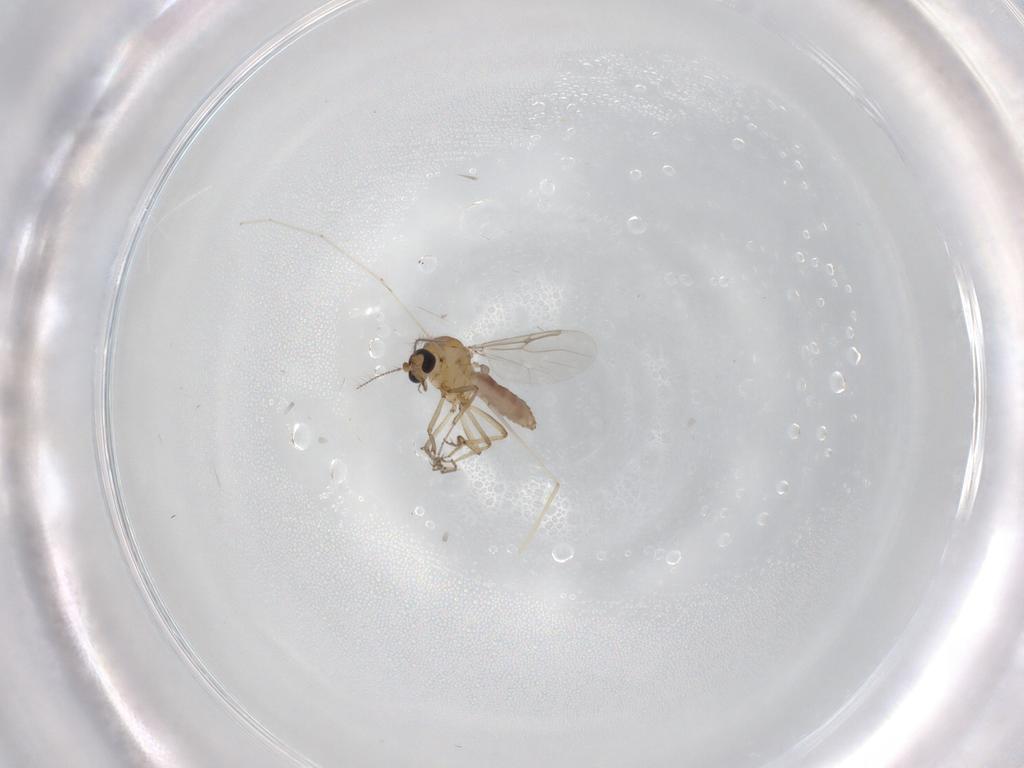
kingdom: Animalia
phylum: Arthropoda
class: Insecta
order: Diptera
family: Ceratopogonidae
